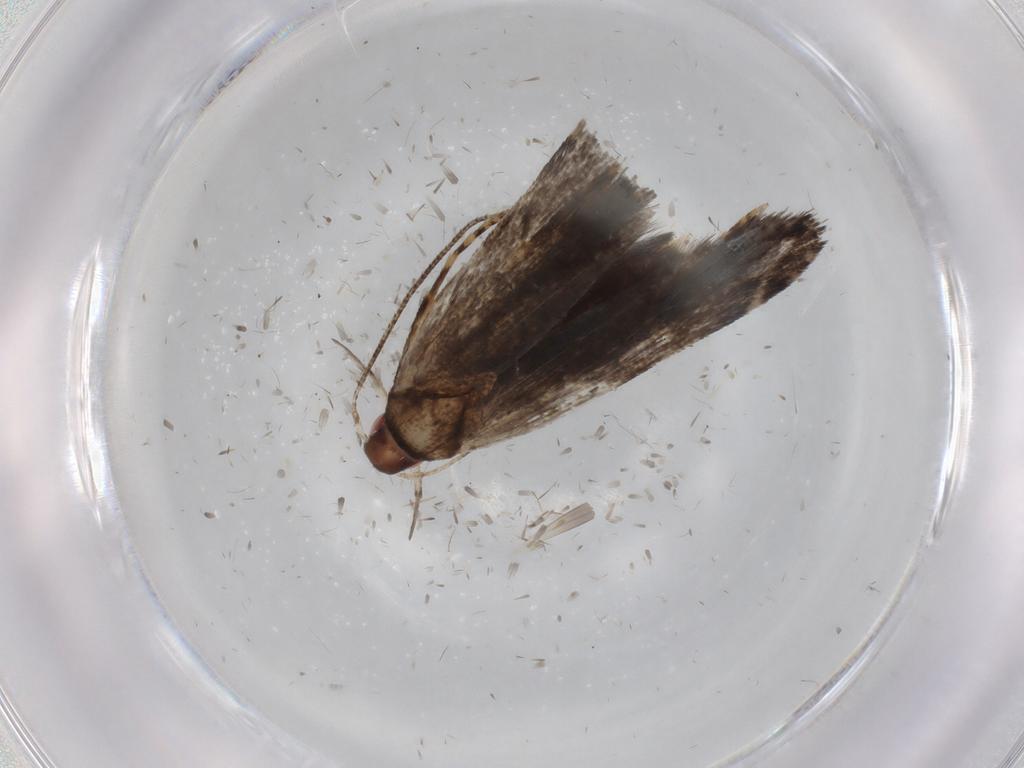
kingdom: Animalia
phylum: Arthropoda
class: Insecta
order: Lepidoptera
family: Gelechiidae
